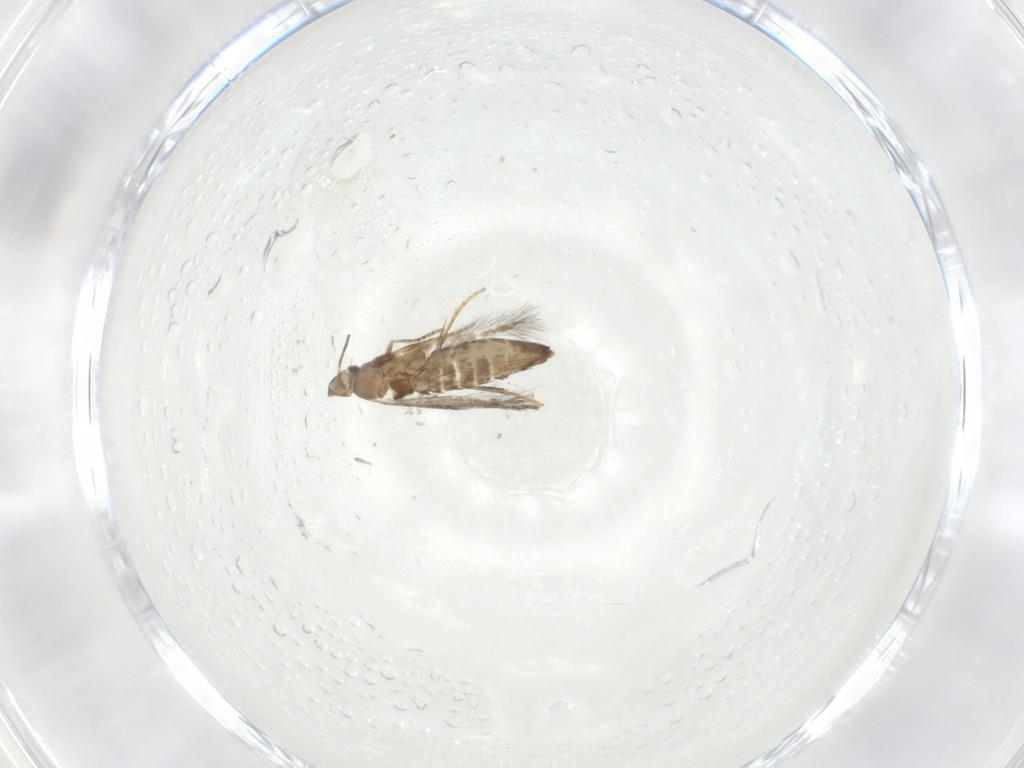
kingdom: Animalia
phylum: Arthropoda
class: Insecta
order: Lepidoptera
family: Heliozelidae
